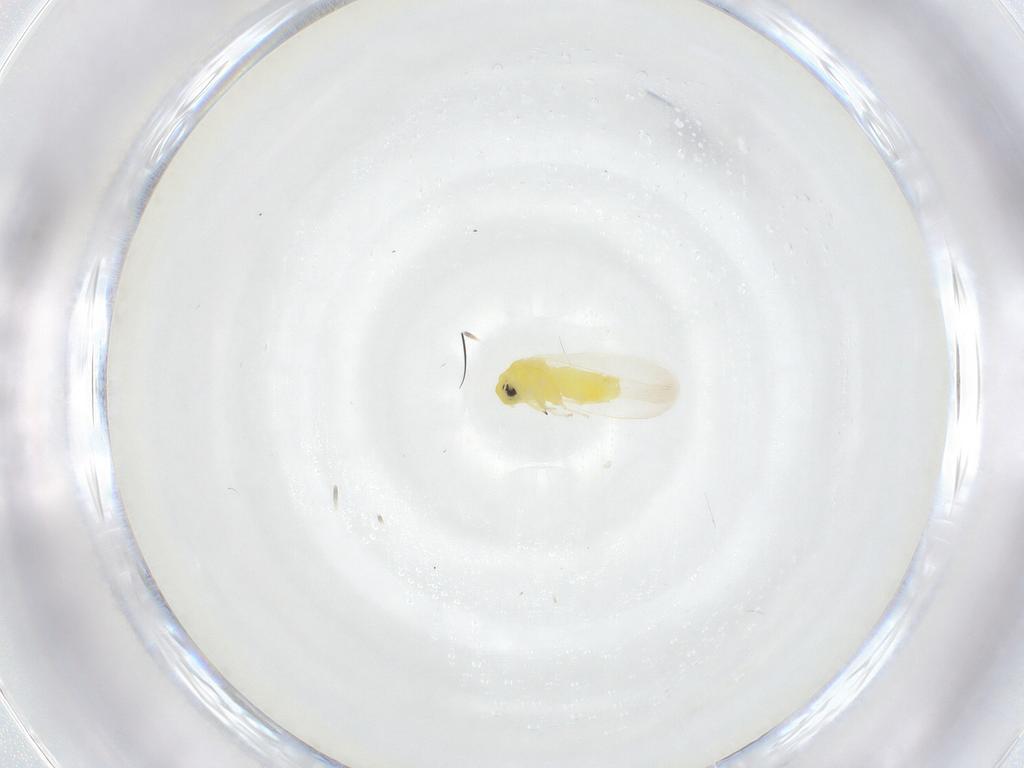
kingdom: Animalia
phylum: Arthropoda
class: Insecta
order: Hemiptera
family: Aleyrodidae
